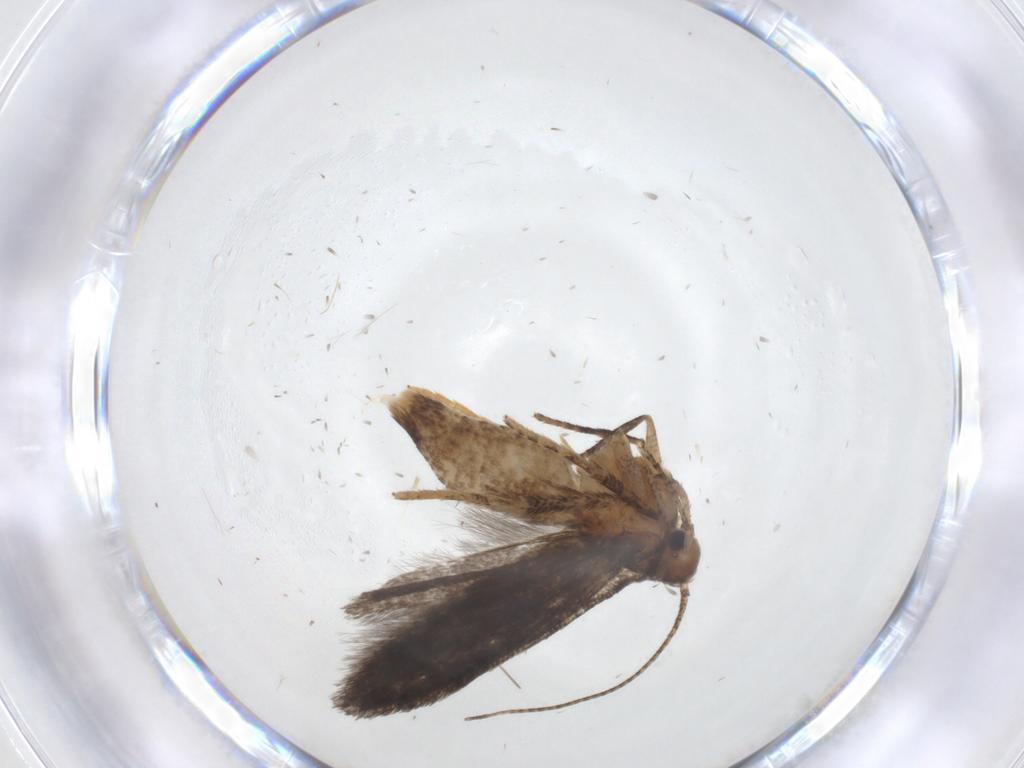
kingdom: Animalia
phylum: Arthropoda
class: Insecta
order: Lepidoptera
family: Gelechiidae
